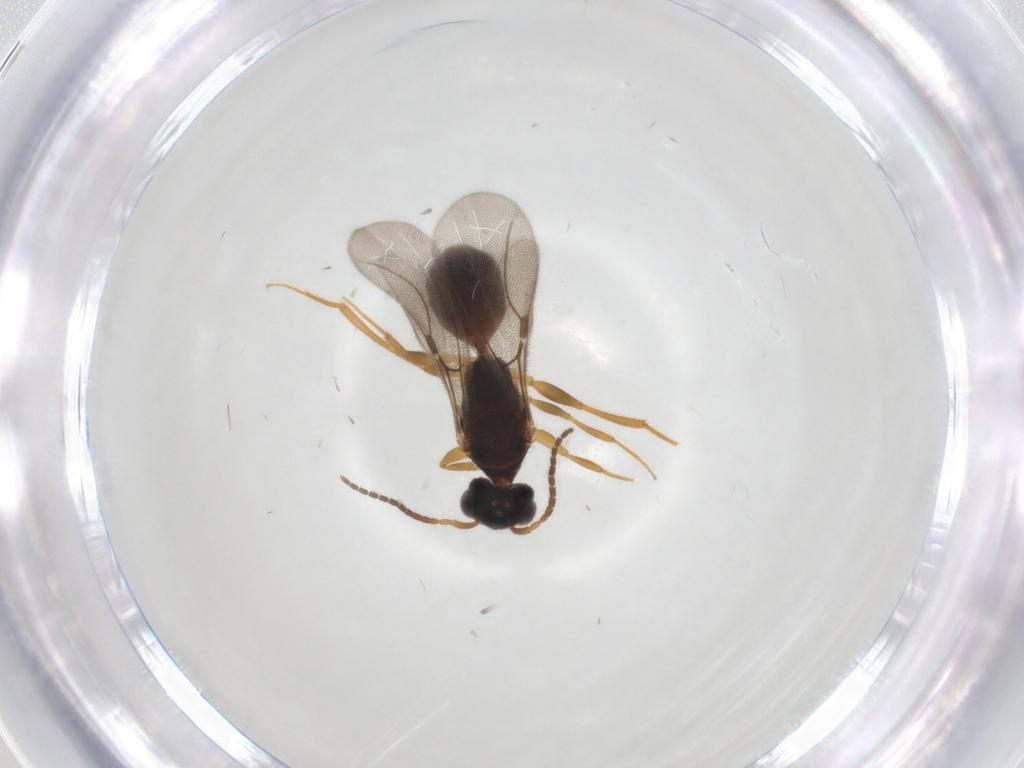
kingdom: Animalia
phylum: Arthropoda
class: Insecta
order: Hymenoptera
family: Bethylidae
